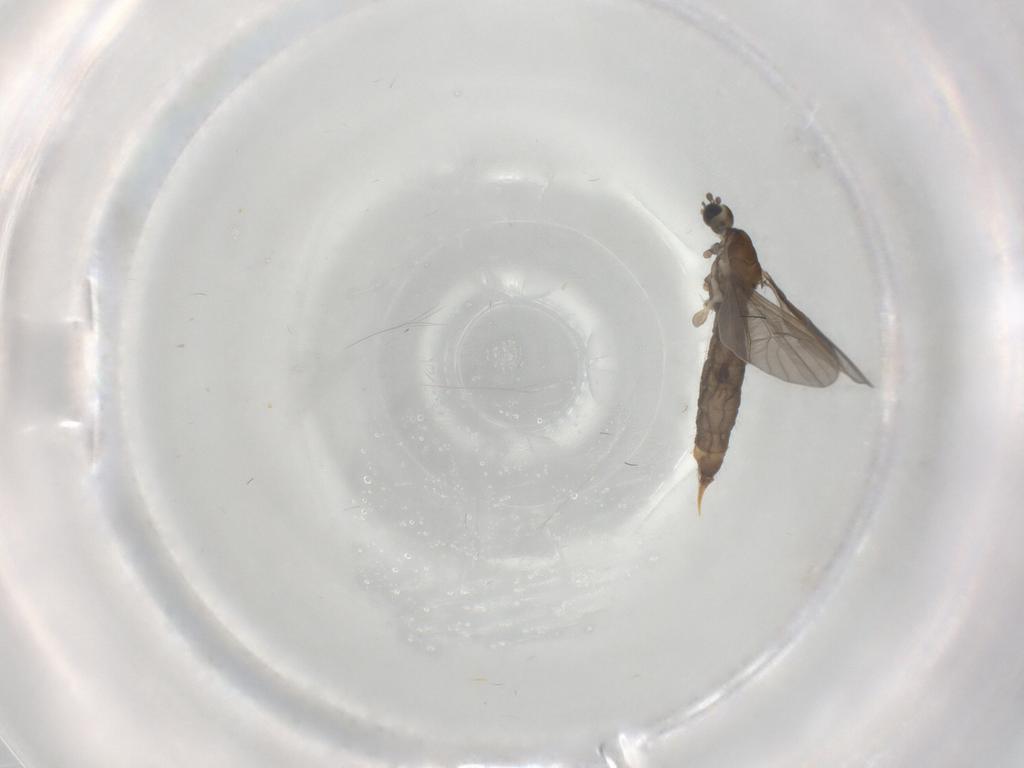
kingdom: Animalia
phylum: Arthropoda
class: Insecta
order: Diptera
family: Limoniidae
